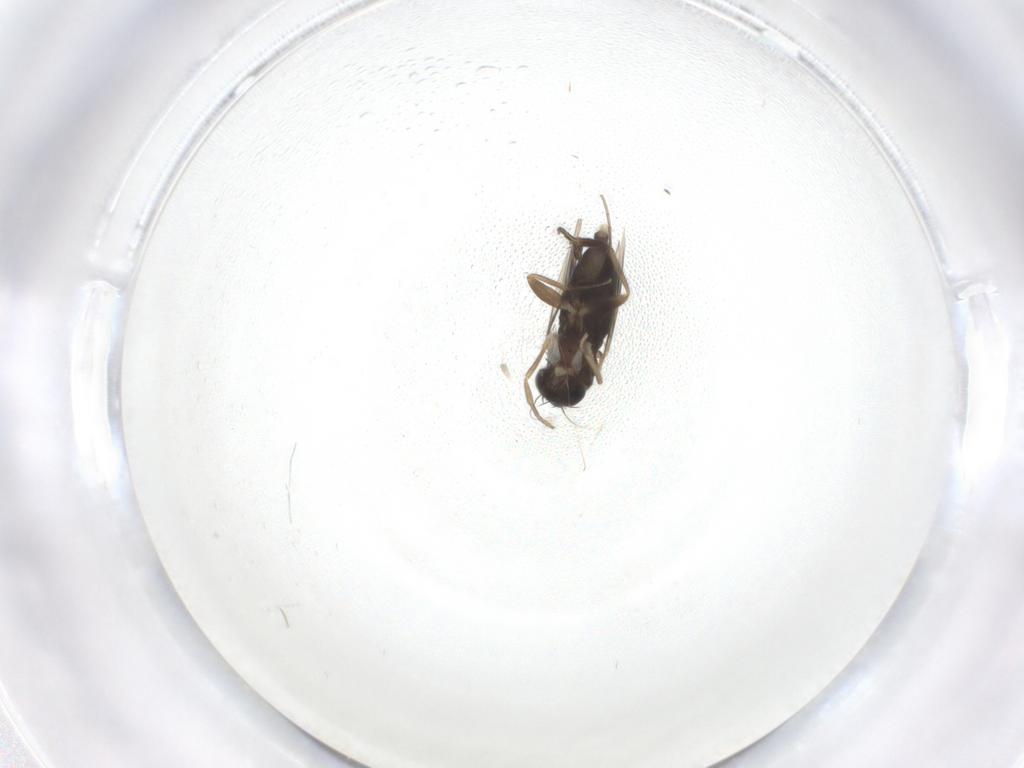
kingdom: Animalia
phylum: Arthropoda
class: Insecta
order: Diptera
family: Phoridae
